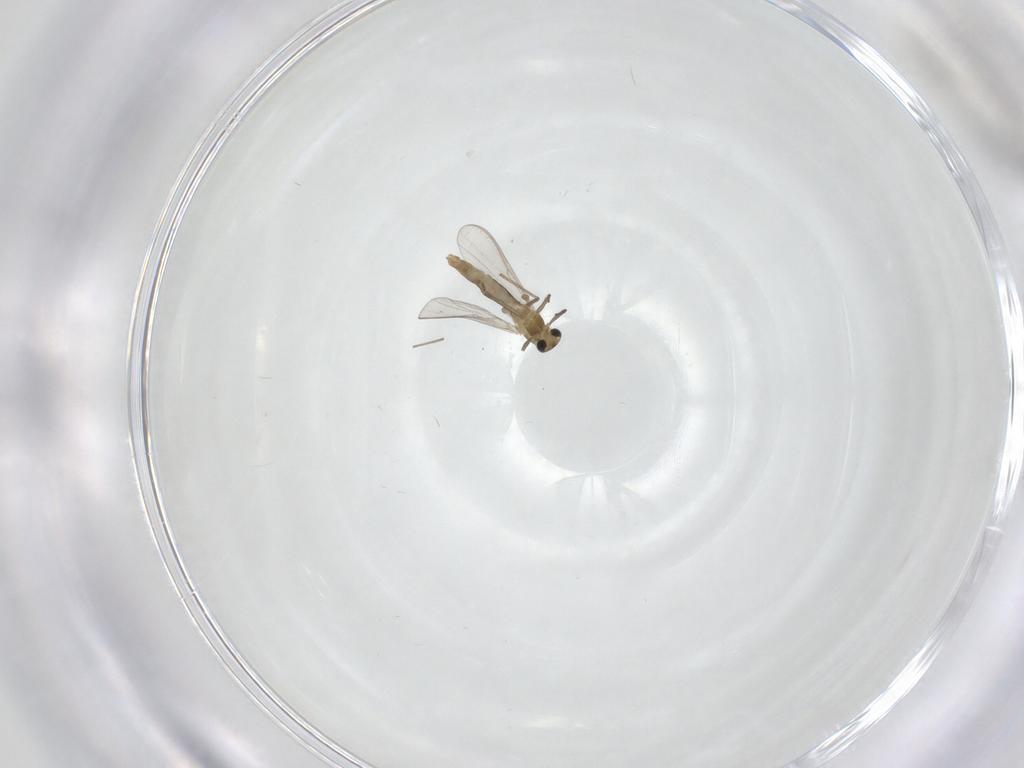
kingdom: Animalia
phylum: Arthropoda
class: Insecta
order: Diptera
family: Chironomidae
